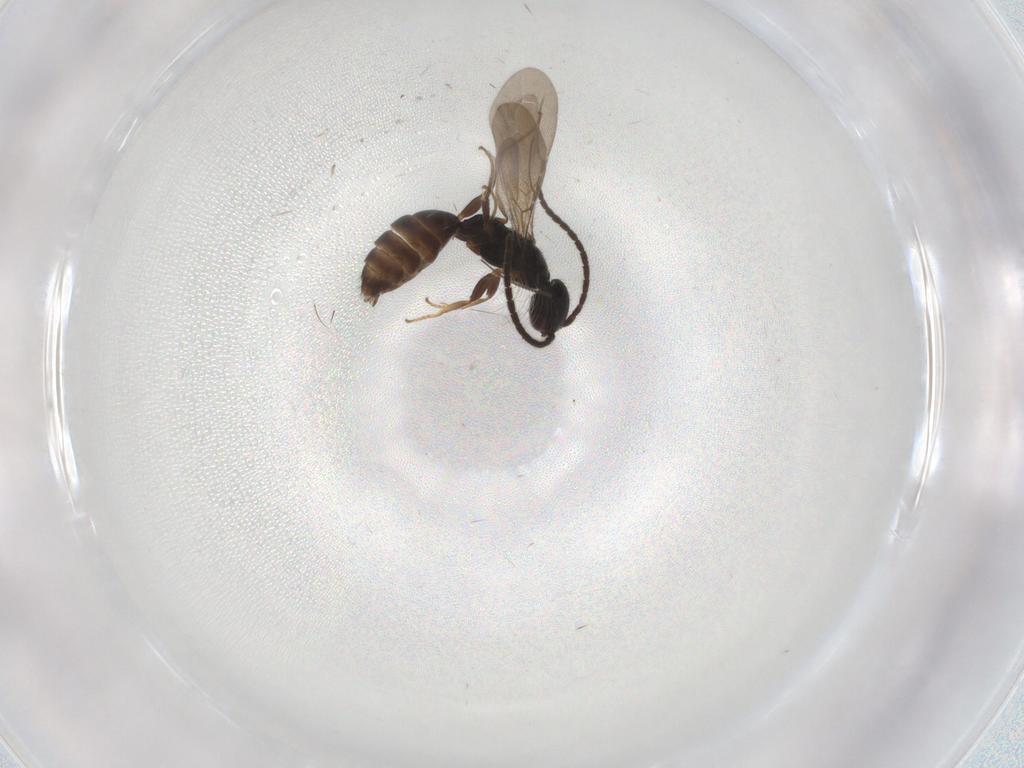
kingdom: Animalia
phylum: Arthropoda
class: Insecta
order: Hymenoptera
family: Bethylidae
